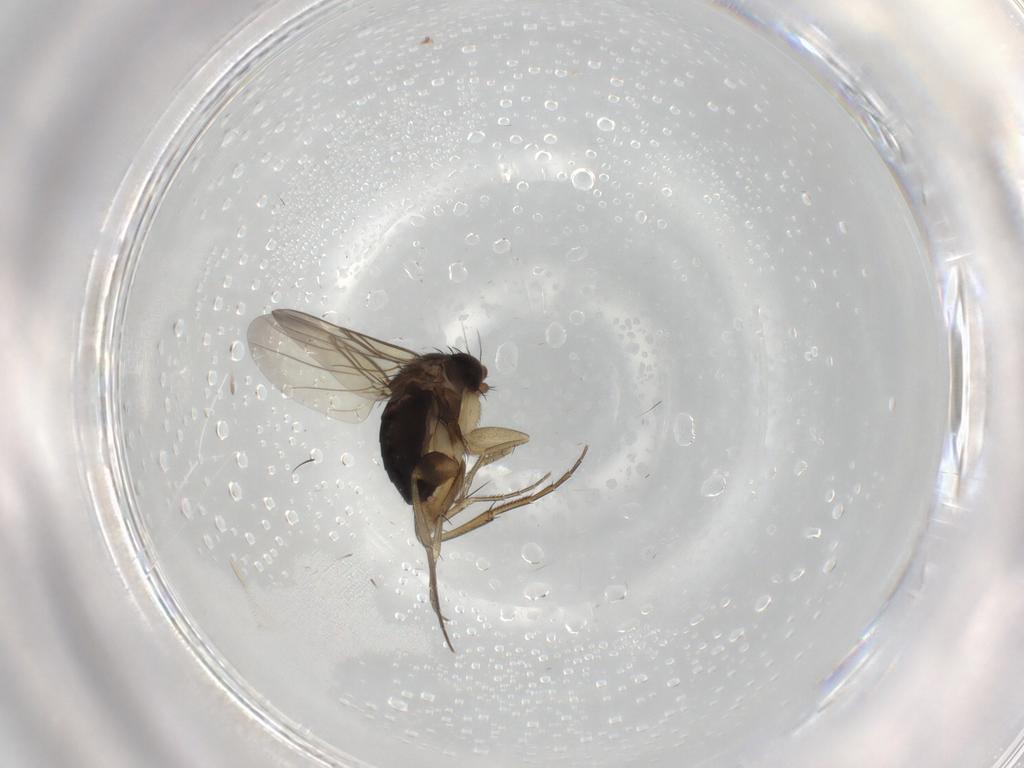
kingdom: Animalia
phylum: Arthropoda
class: Insecta
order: Diptera
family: Phoridae
